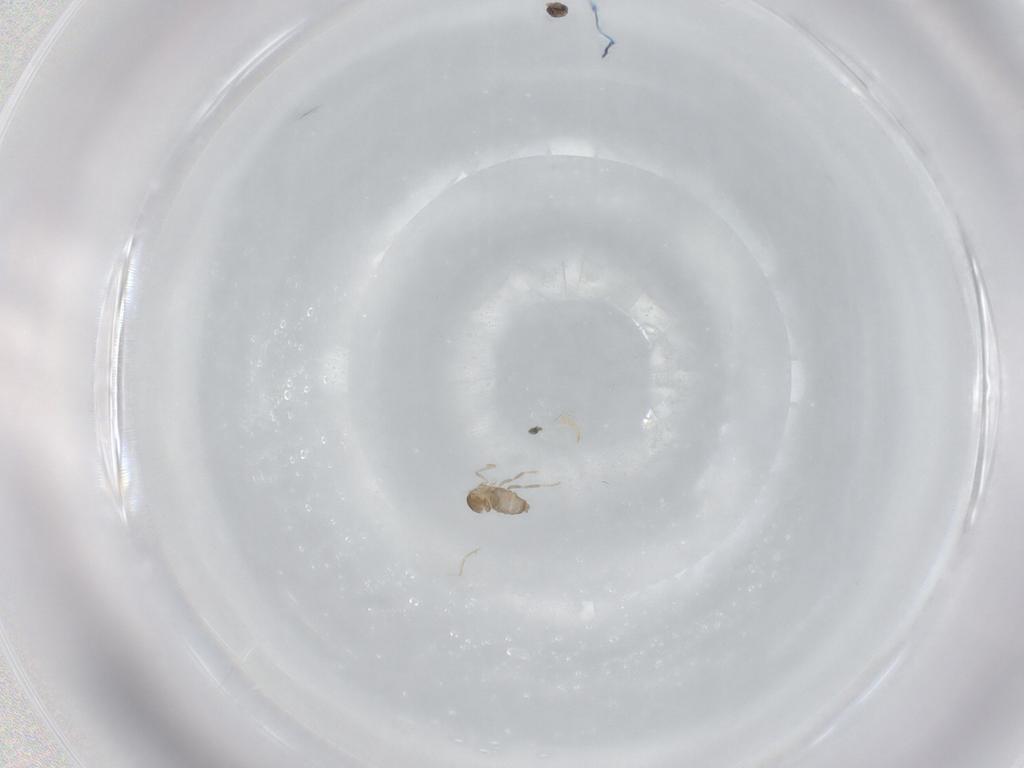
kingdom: Animalia
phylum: Arthropoda
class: Insecta
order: Diptera
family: Cecidomyiidae
